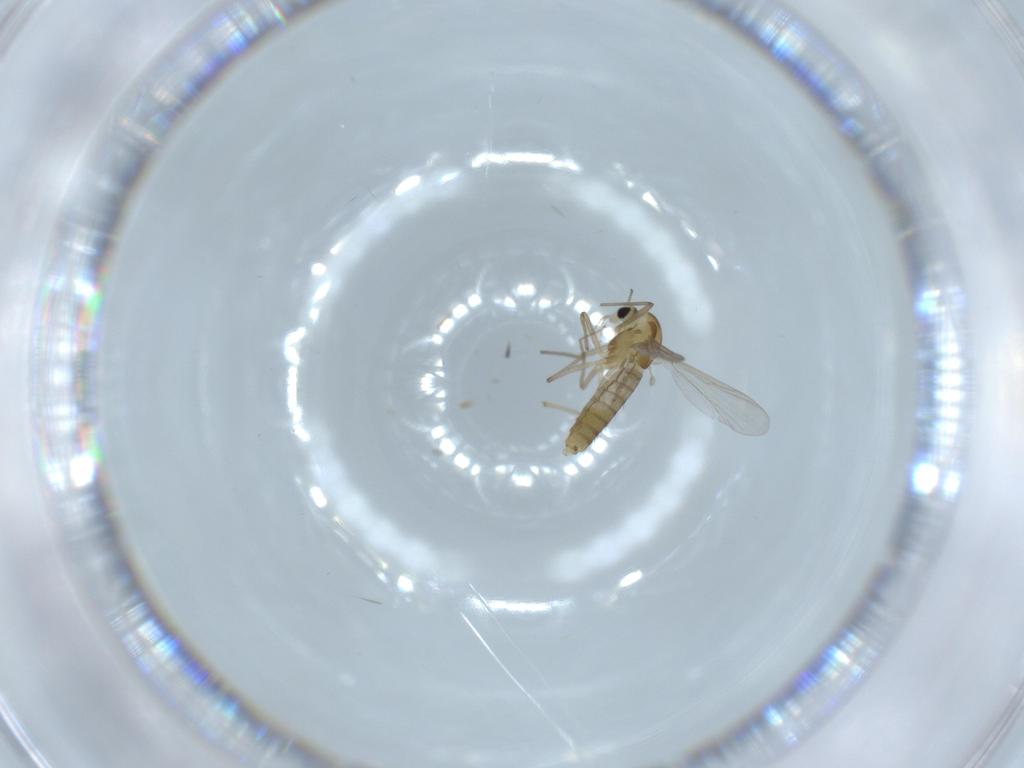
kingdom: Animalia
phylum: Arthropoda
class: Insecta
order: Diptera
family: Chironomidae
